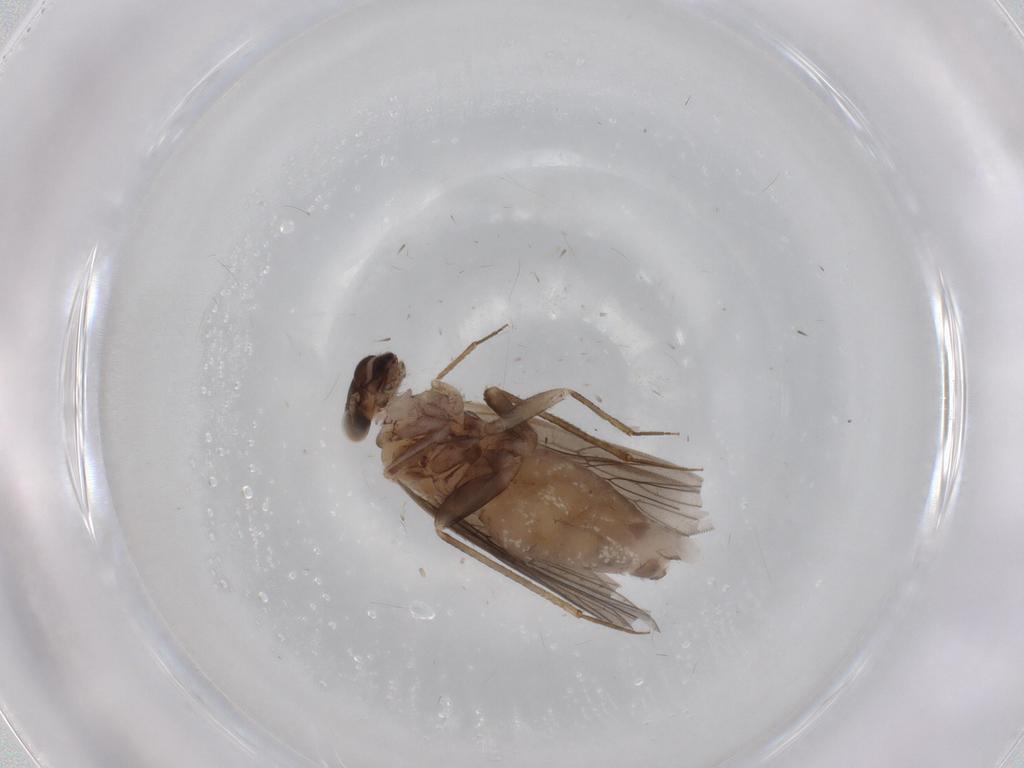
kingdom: Animalia
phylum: Arthropoda
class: Insecta
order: Psocodea
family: Lepidopsocidae
